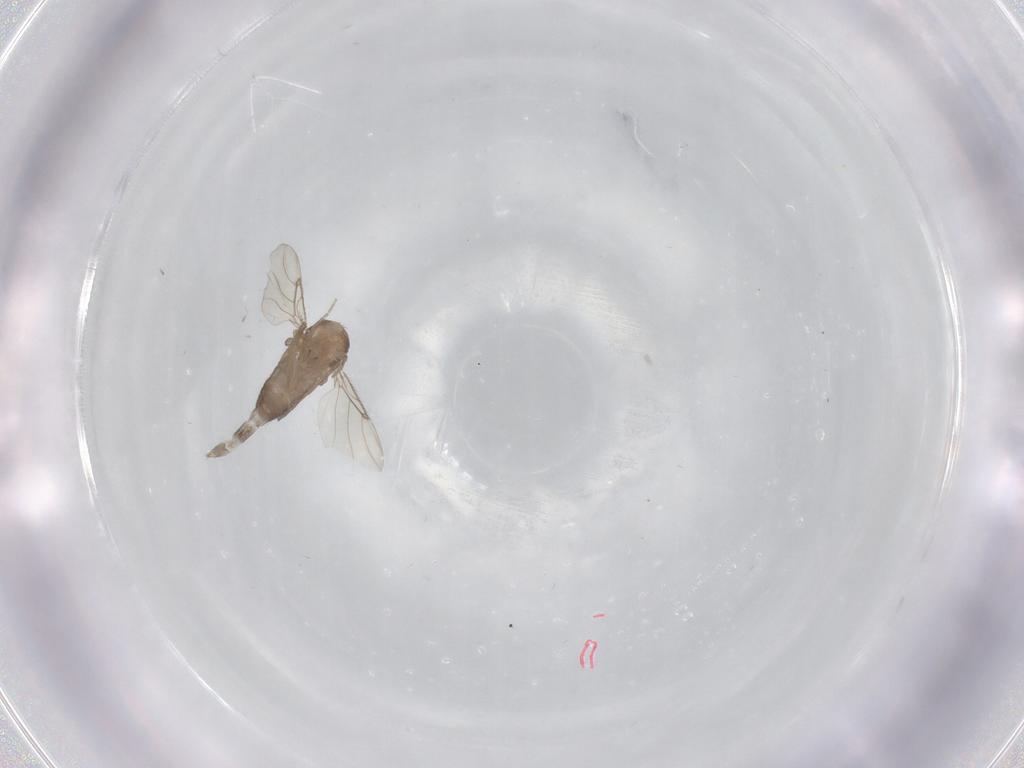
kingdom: Animalia
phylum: Arthropoda
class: Insecta
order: Diptera
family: Sciaridae
